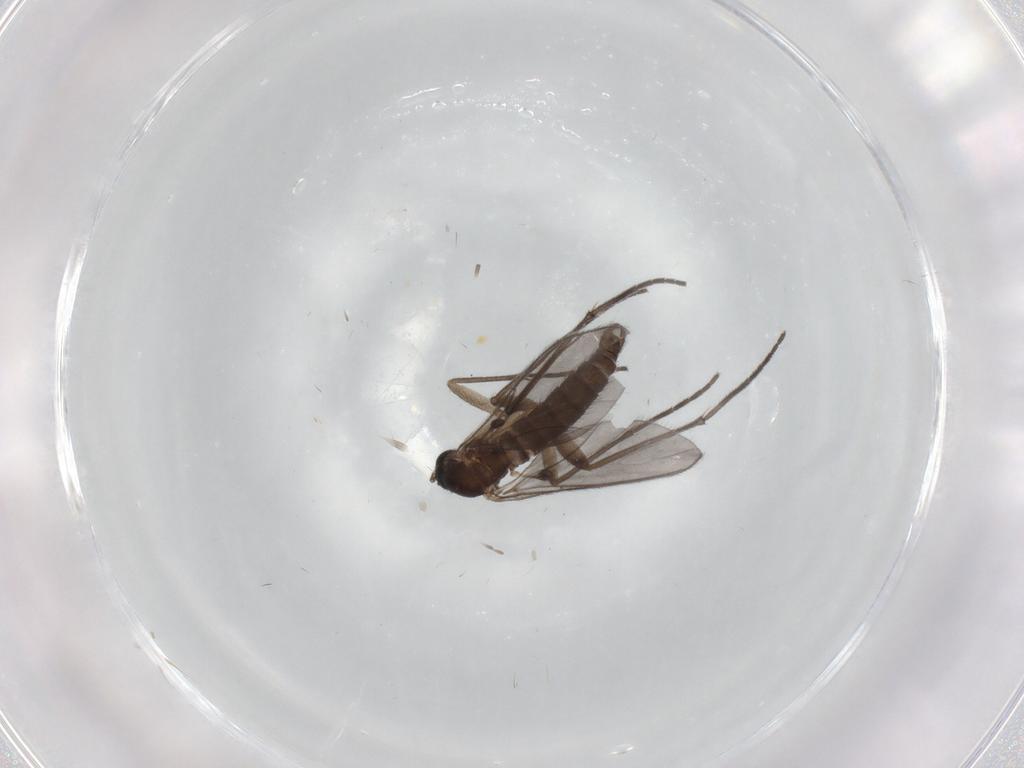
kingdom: Animalia
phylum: Arthropoda
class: Insecta
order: Diptera
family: Sciaridae
